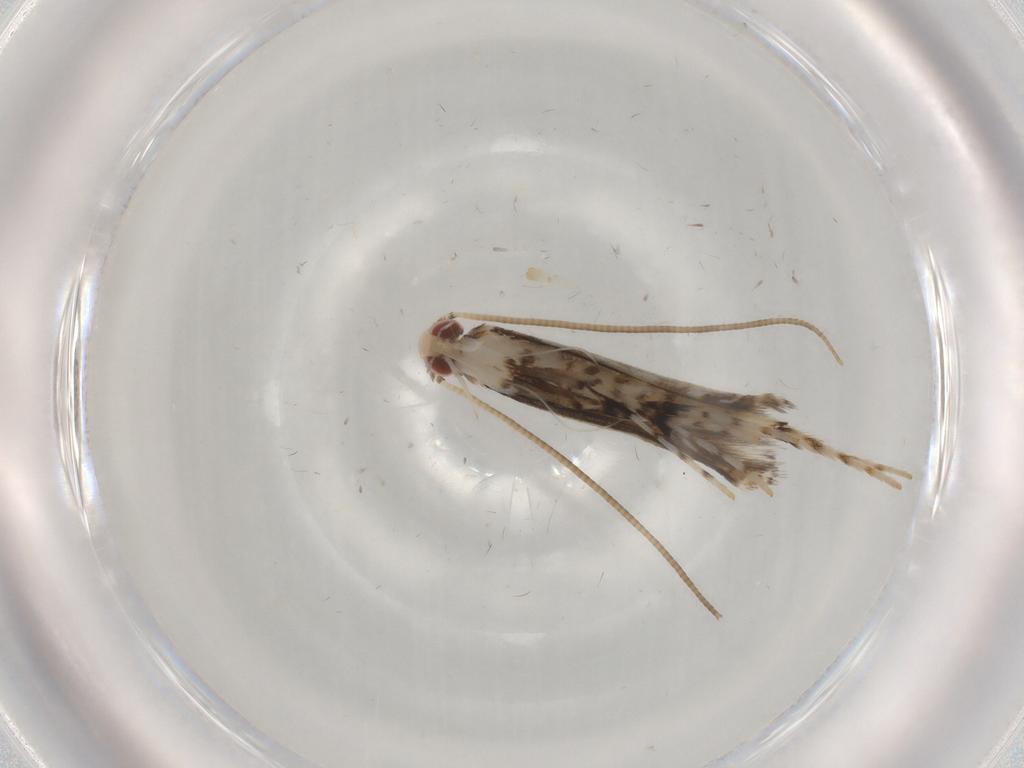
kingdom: Animalia
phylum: Arthropoda
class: Insecta
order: Lepidoptera
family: Gracillariidae
